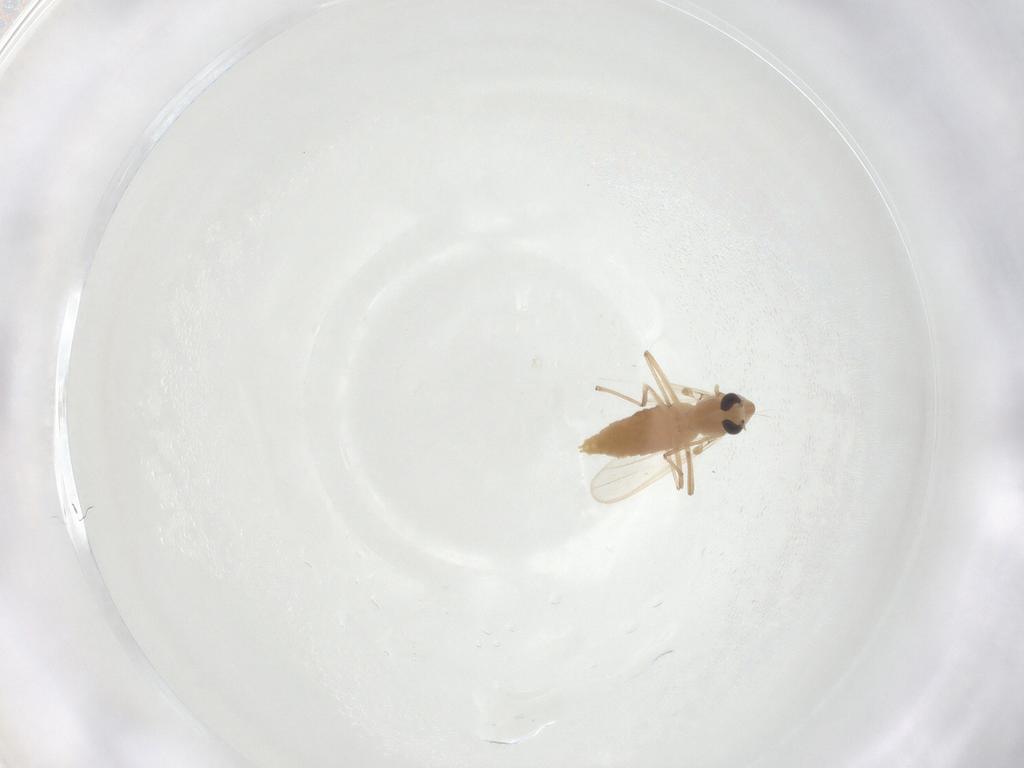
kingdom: Animalia
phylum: Arthropoda
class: Insecta
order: Diptera
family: Chironomidae
